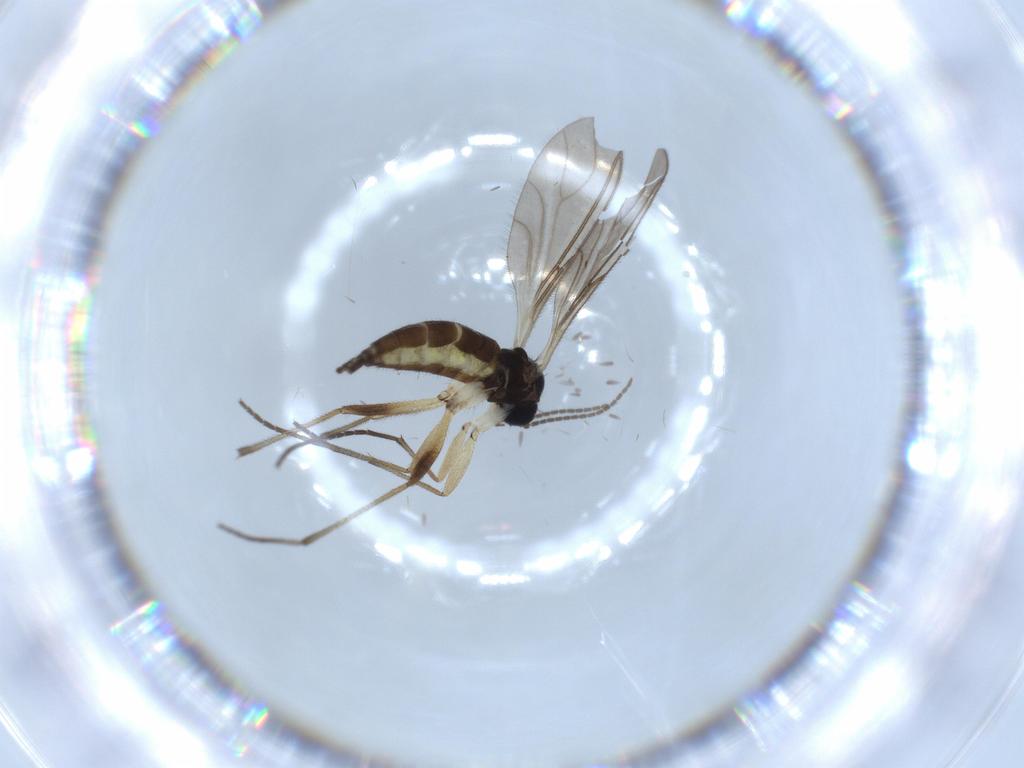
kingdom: Animalia
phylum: Arthropoda
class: Insecta
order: Diptera
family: Sciaridae
